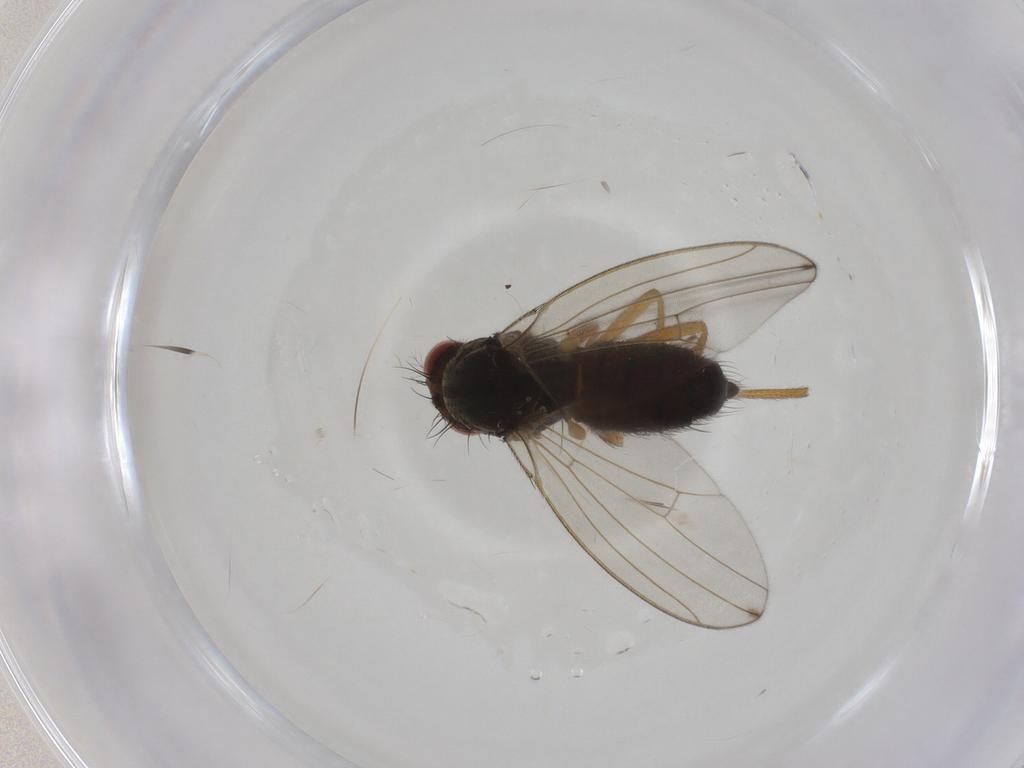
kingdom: Animalia
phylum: Arthropoda
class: Insecta
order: Diptera
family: Drosophilidae
